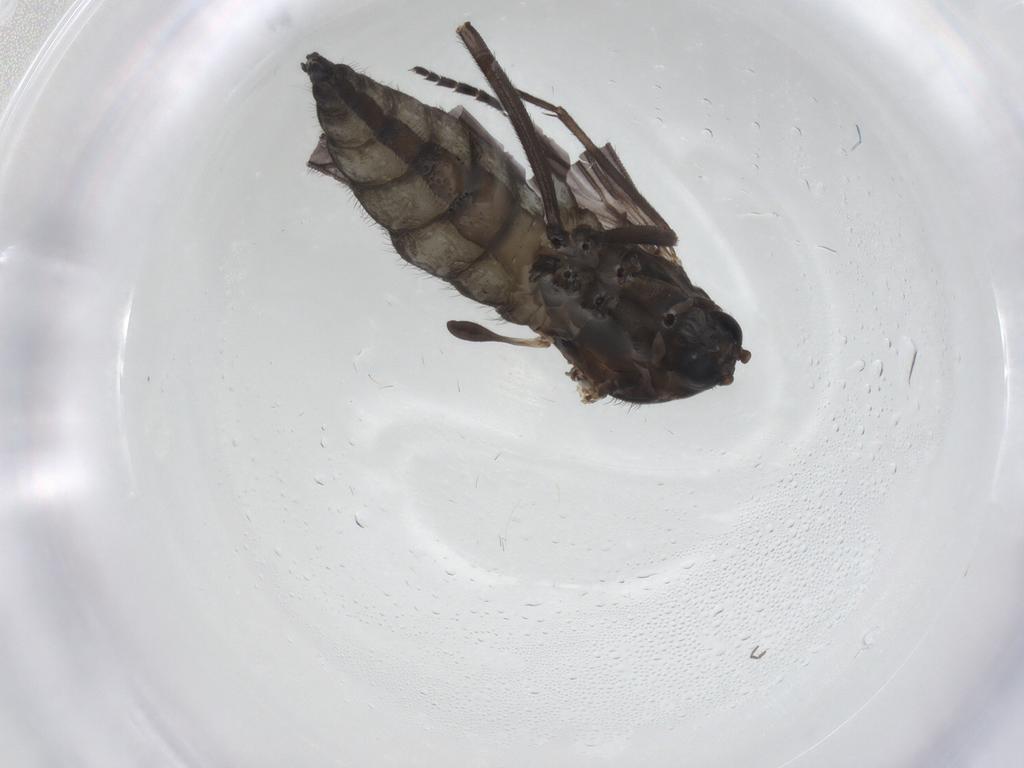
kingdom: Animalia
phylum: Arthropoda
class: Insecta
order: Diptera
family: Sciaridae
